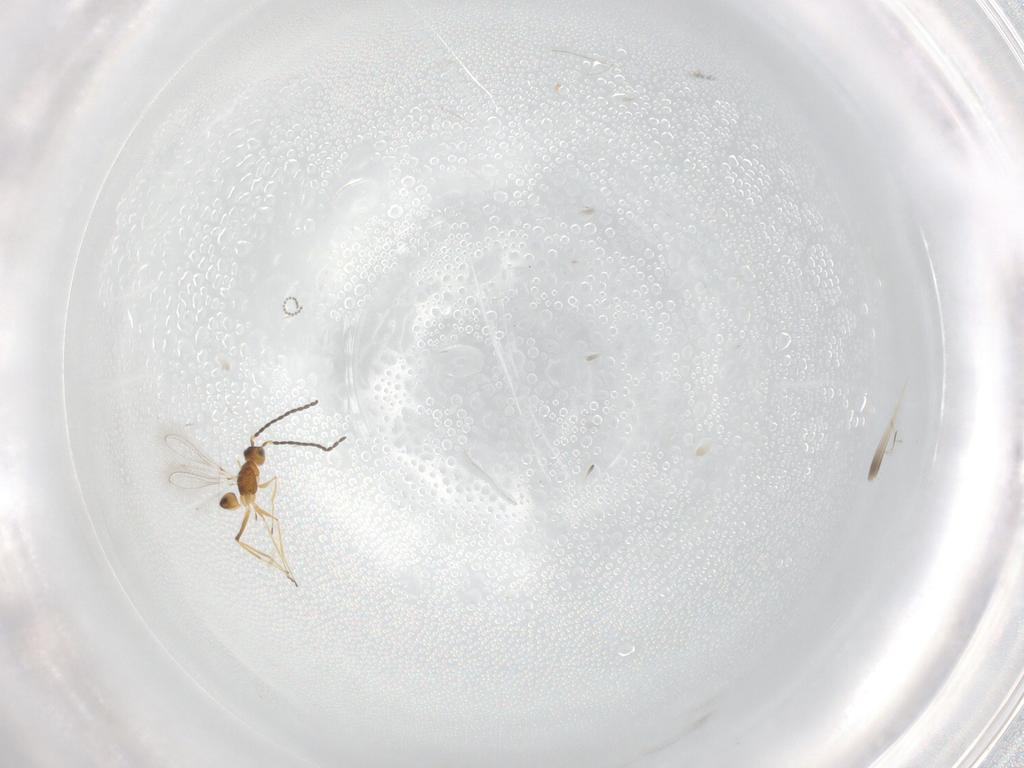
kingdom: Animalia
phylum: Arthropoda
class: Insecta
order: Hymenoptera
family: Mymaridae
